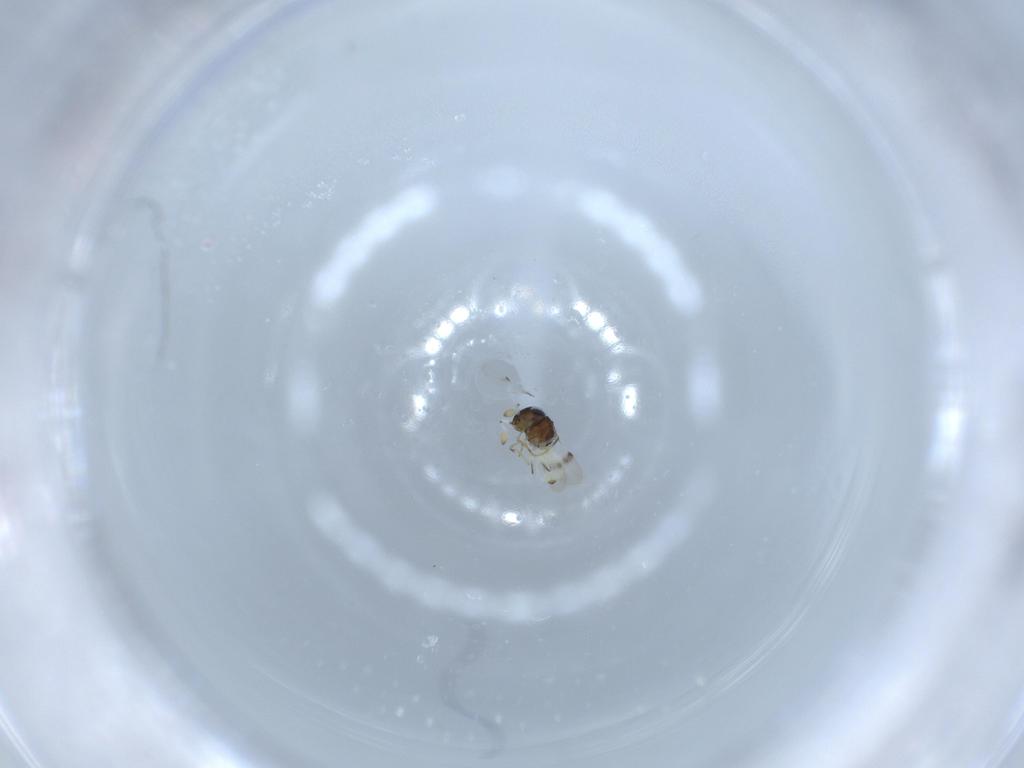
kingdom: Animalia
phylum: Arthropoda
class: Insecta
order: Hymenoptera
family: Scelionidae
